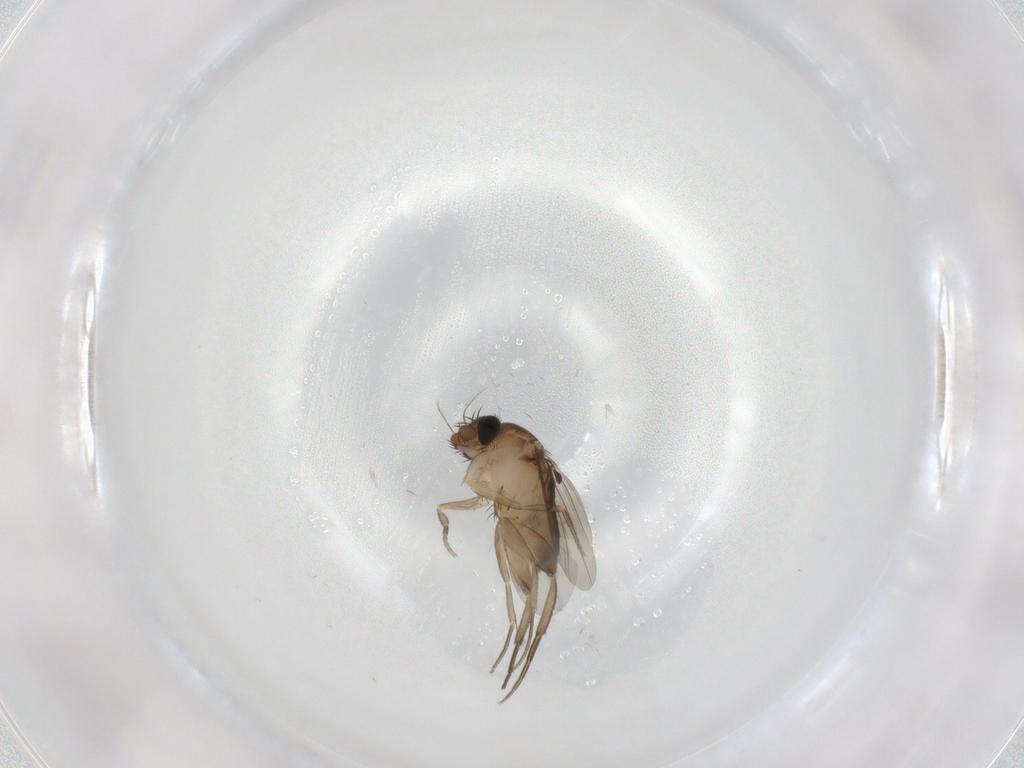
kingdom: Animalia
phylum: Arthropoda
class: Insecta
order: Diptera
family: Phoridae
